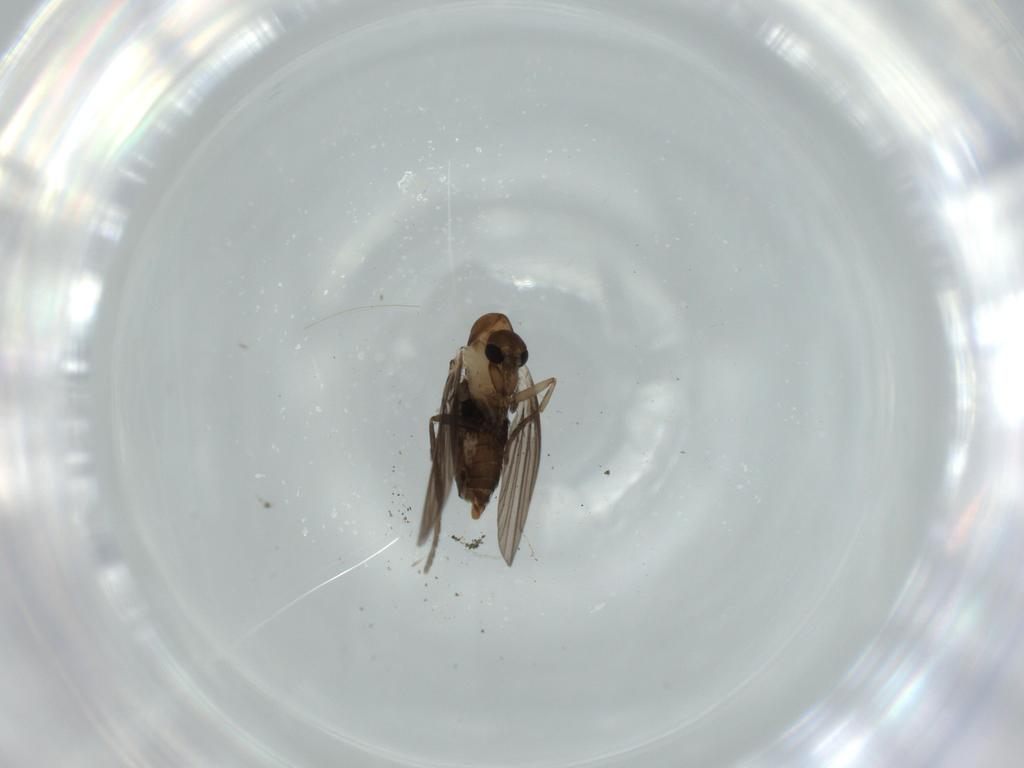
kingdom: Animalia
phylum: Arthropoda
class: Insecta
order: Diptera
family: Psychodidae
